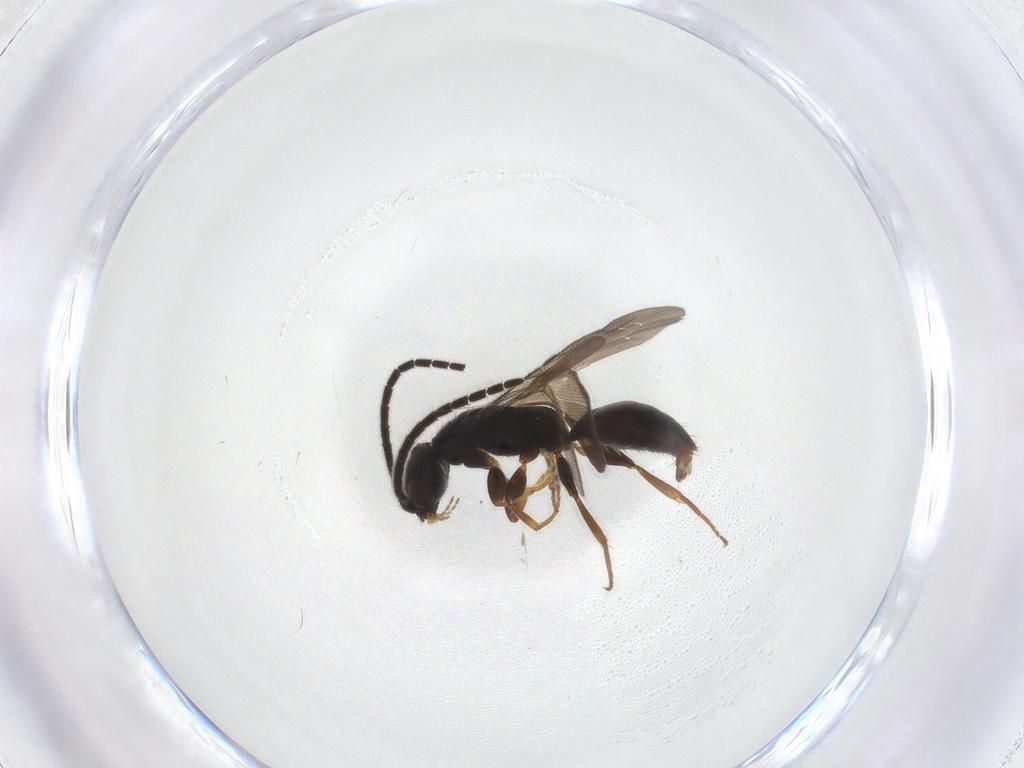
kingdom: Animalia
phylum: Arthropoda
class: Insecta
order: Hymenoptera
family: Bethylidae
